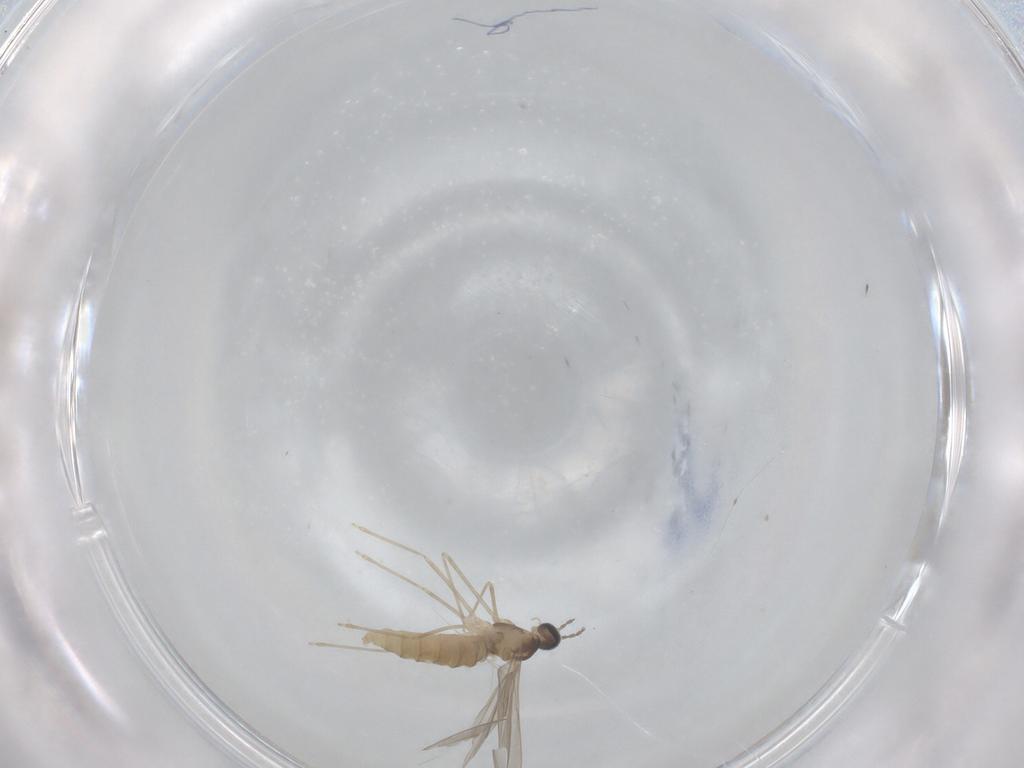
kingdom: Animalia
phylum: Arthropoda
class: Insecta
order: Diptera
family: Cecidomyiidae
